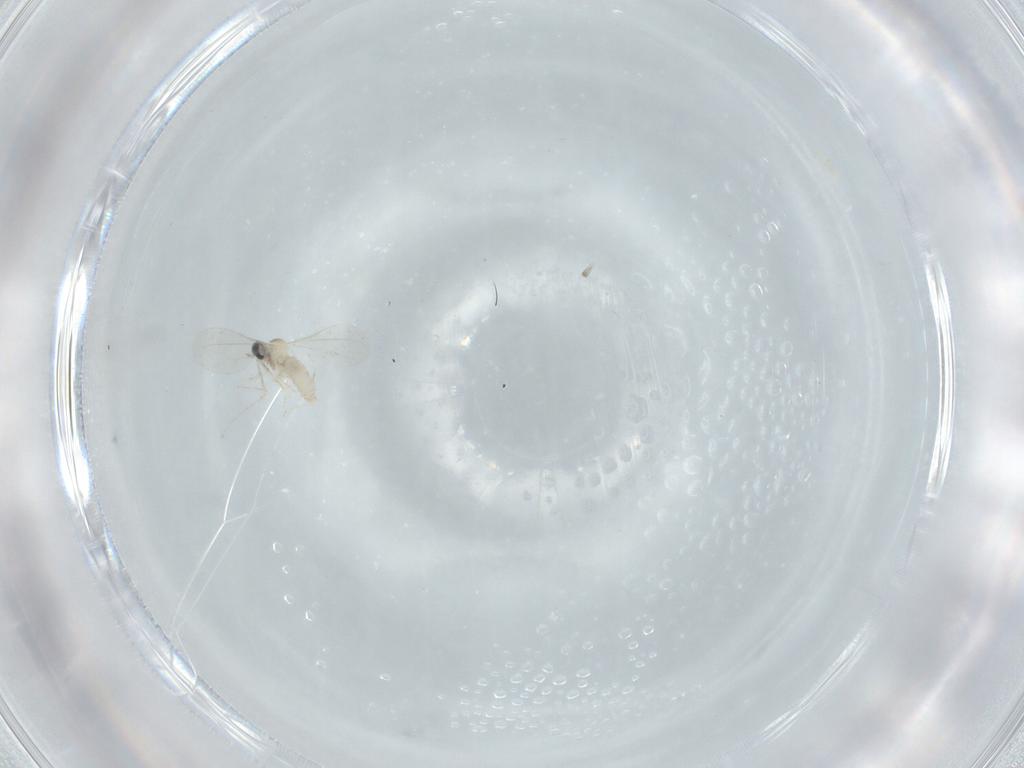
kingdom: Animalia
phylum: Arthropoda
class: Insecta
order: Diptera
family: Cecidomyiidae
